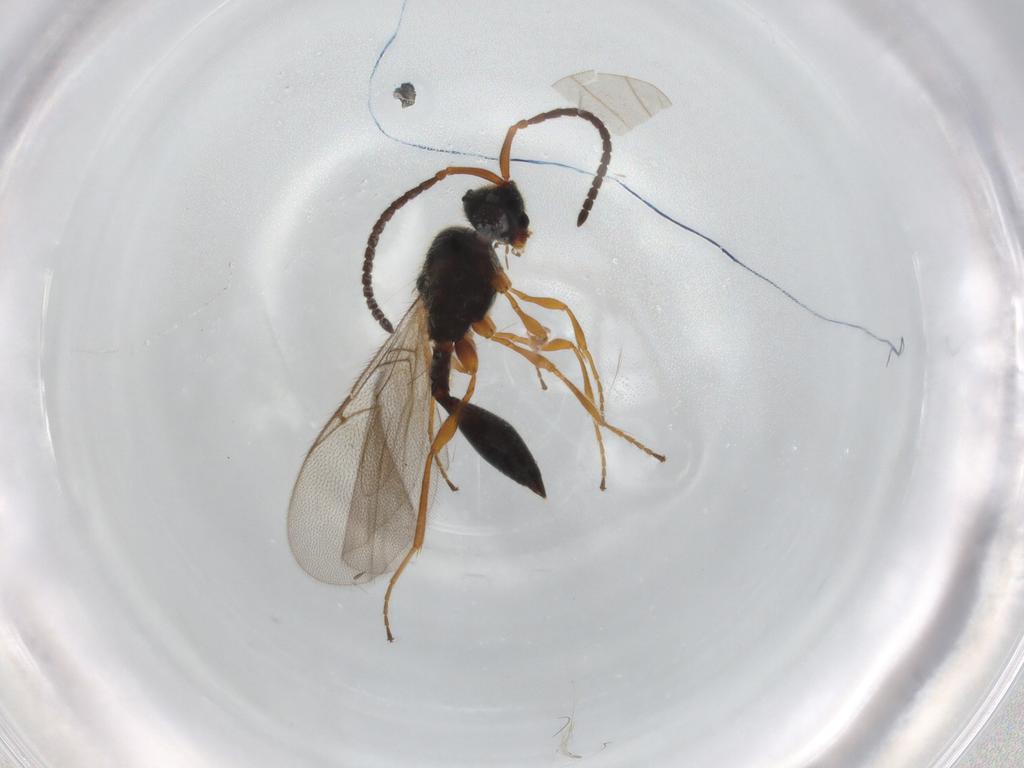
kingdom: Animalia
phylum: Arthropoda
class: Insecta
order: Hymenoptera
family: Diapriidae
